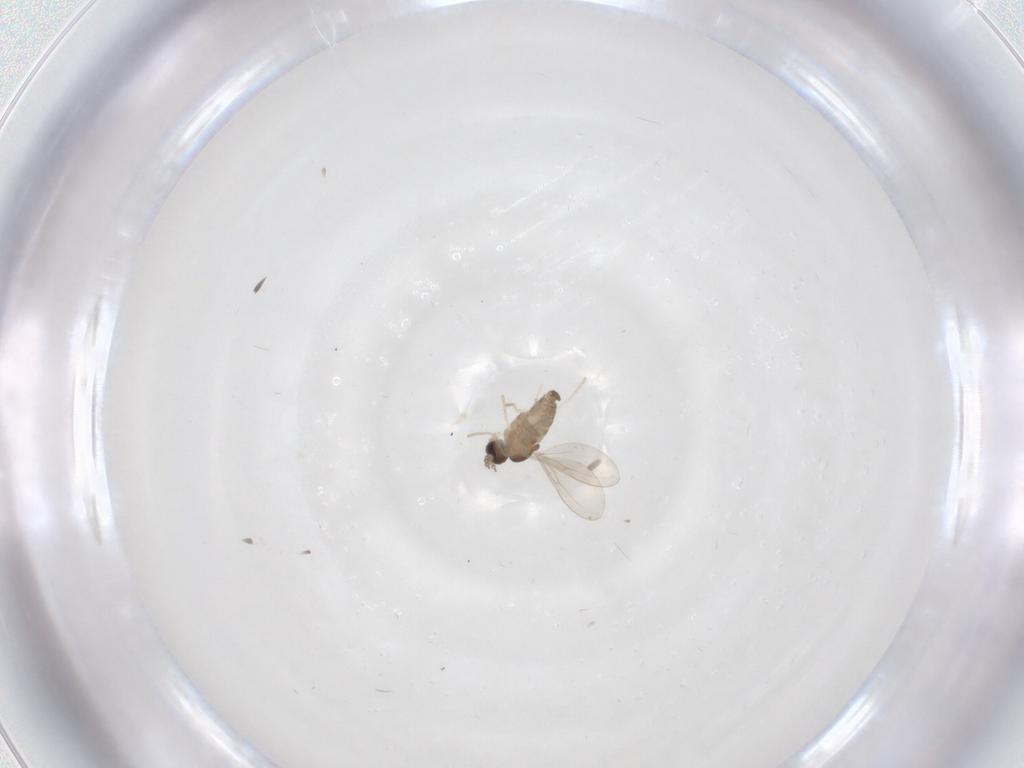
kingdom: Animalia
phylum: Arthropoda
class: Insecta
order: Diptera
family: Cecidomyiidae
